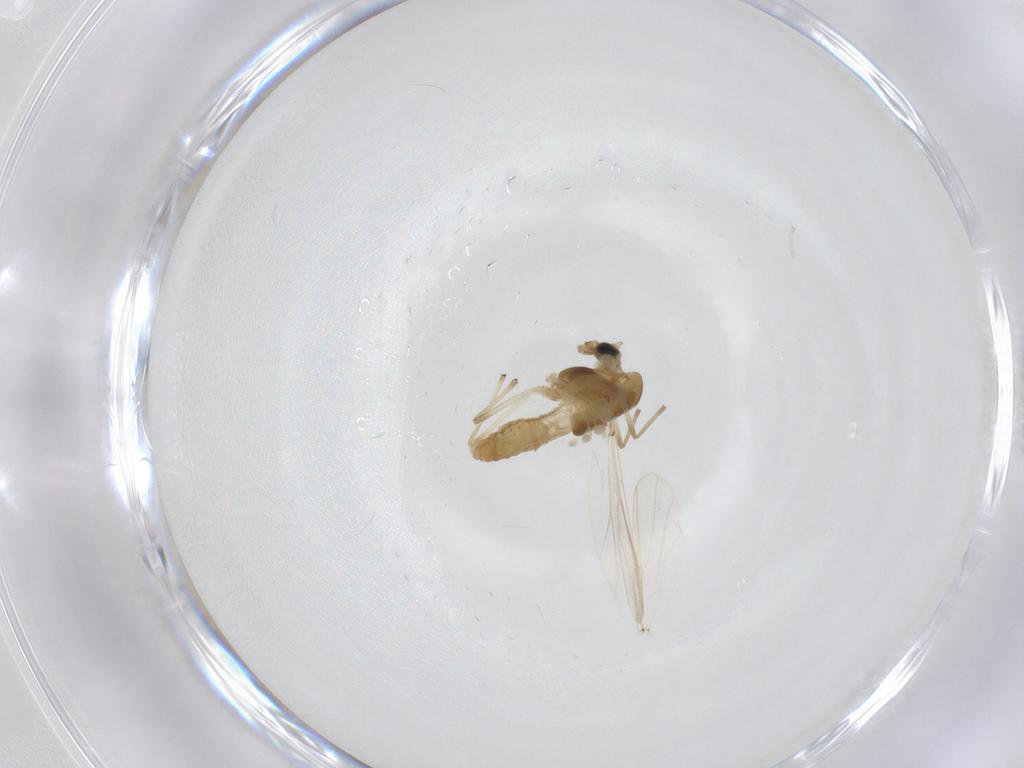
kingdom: Animalia
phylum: Arthropoda
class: Insecta
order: Diptera
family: Chironomidae
